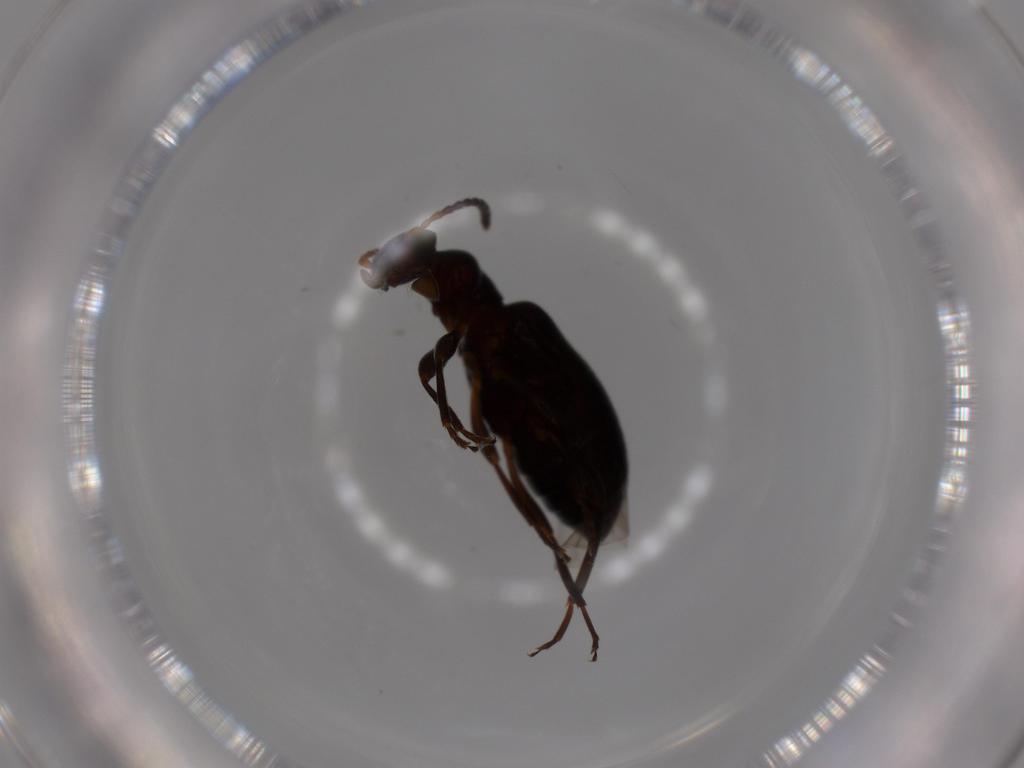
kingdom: Animalia
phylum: Arthropoda
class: Insecta
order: Coleoptera
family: Anthicidae
